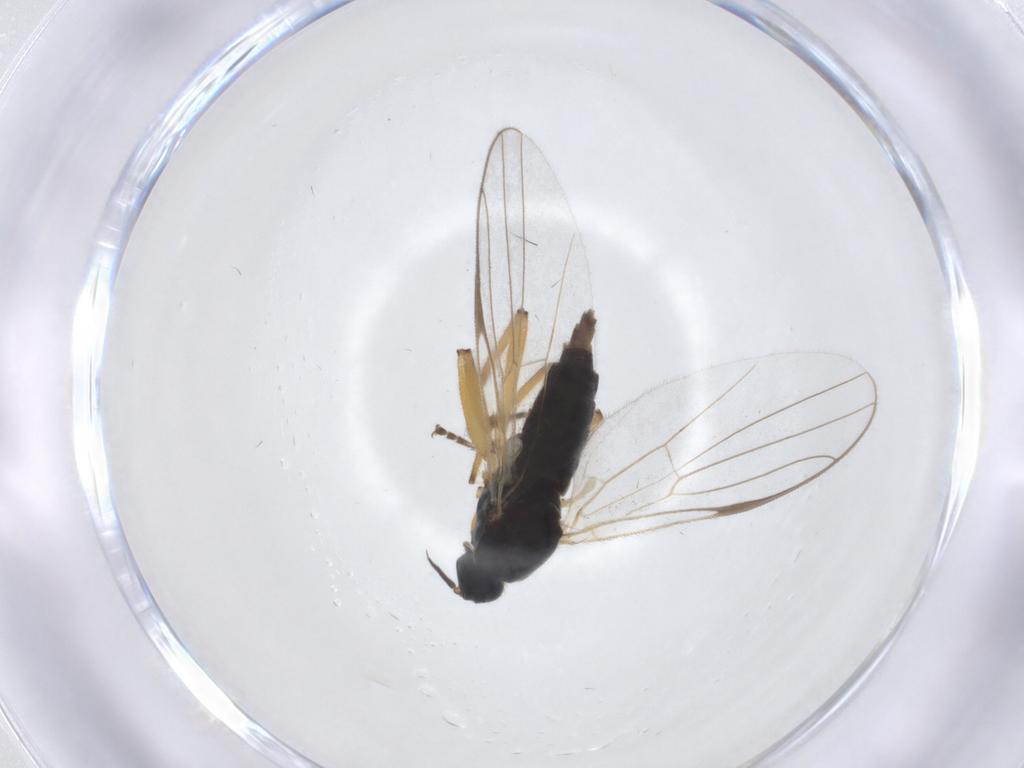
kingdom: Animalia
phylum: Arthropoda
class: Insecta
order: Diptera
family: Hybotidae
